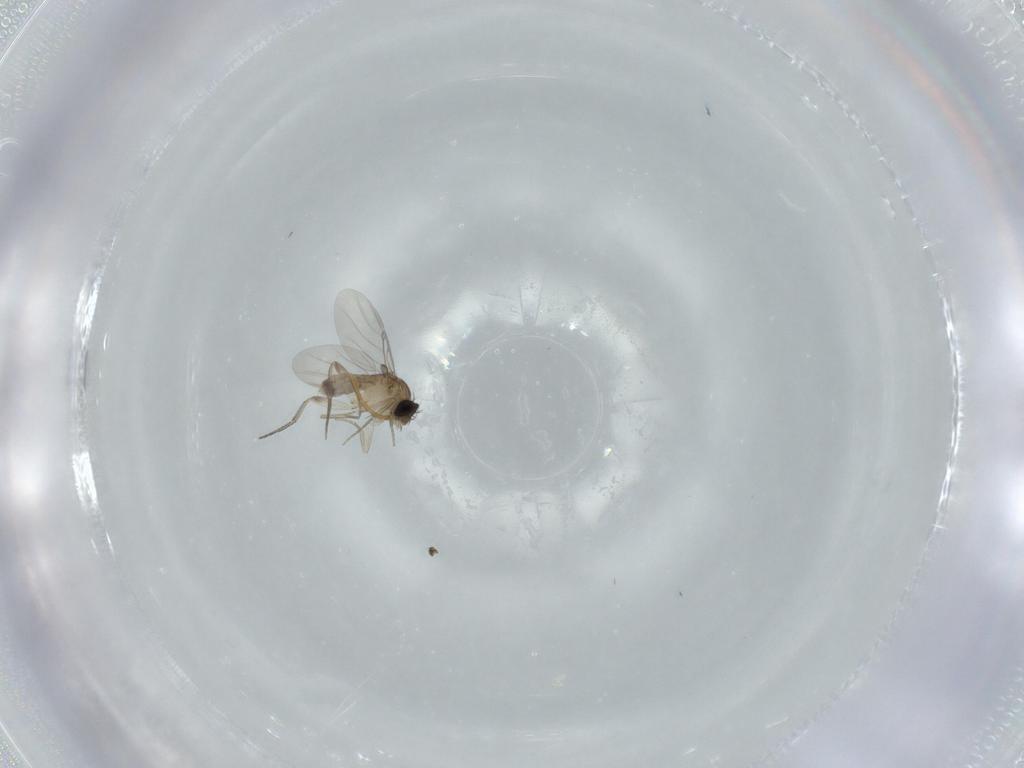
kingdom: Animalia
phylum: Arthropoda
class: Insecta
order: Diptera
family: Phoridae
